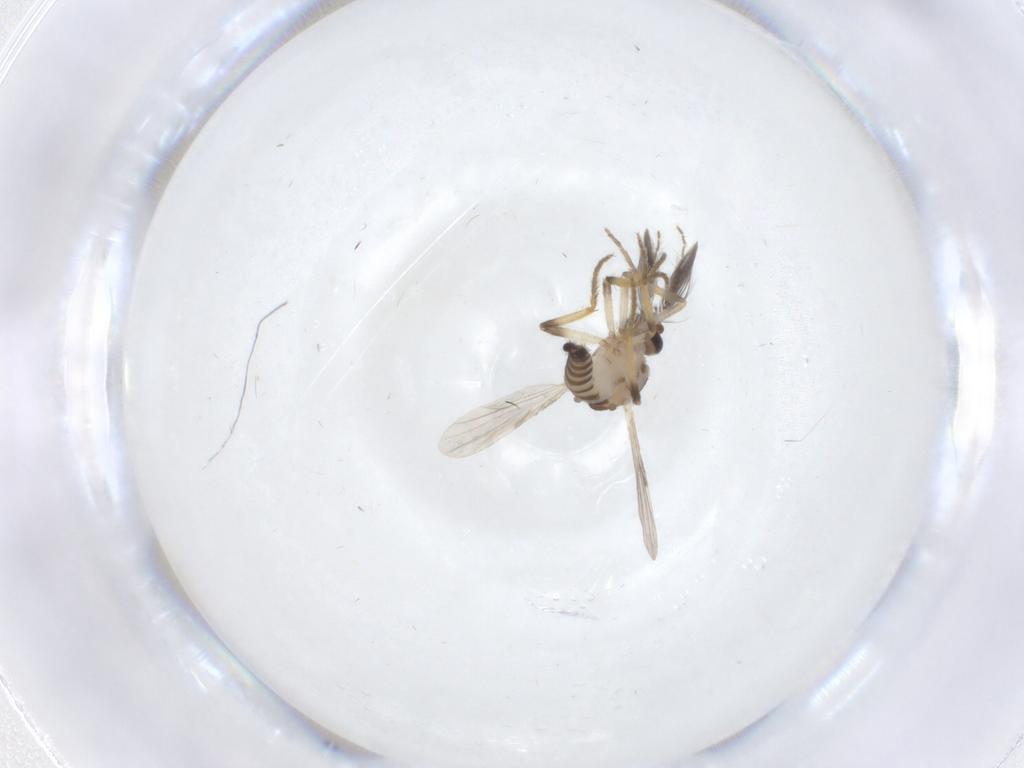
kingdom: Animalia
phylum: Arthropoda
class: Insecta
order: Diptera
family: Ceratopogonidae
